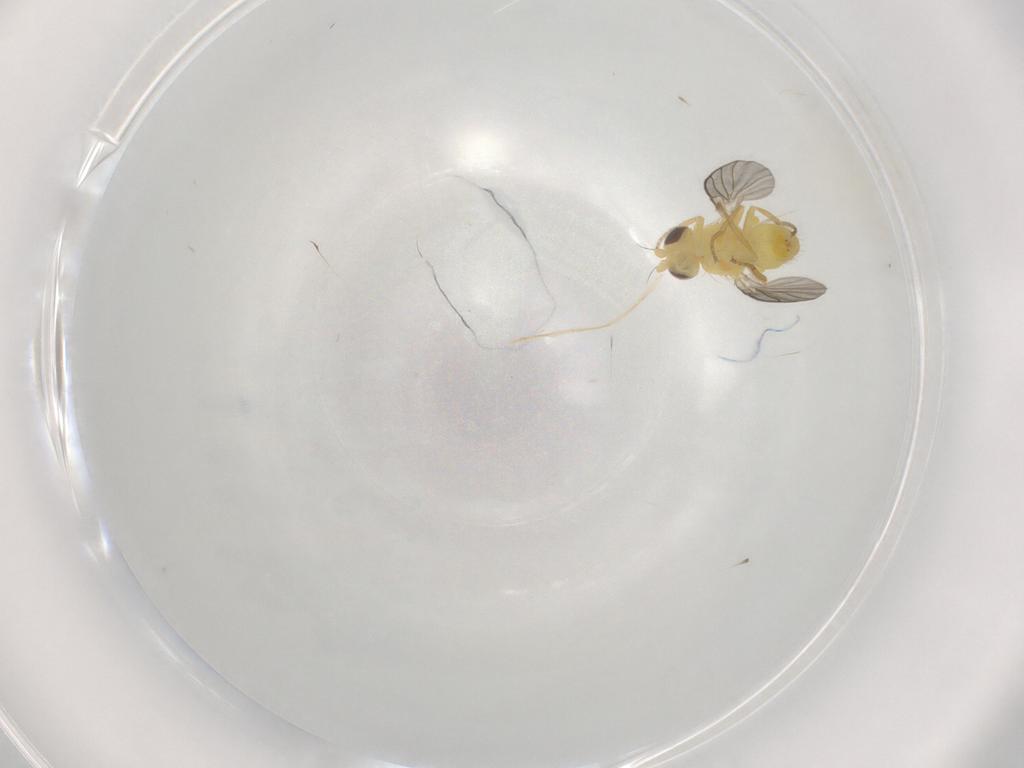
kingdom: Animalia
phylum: Arthropoda
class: Insecta
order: Diptera
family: Agromyzidae
